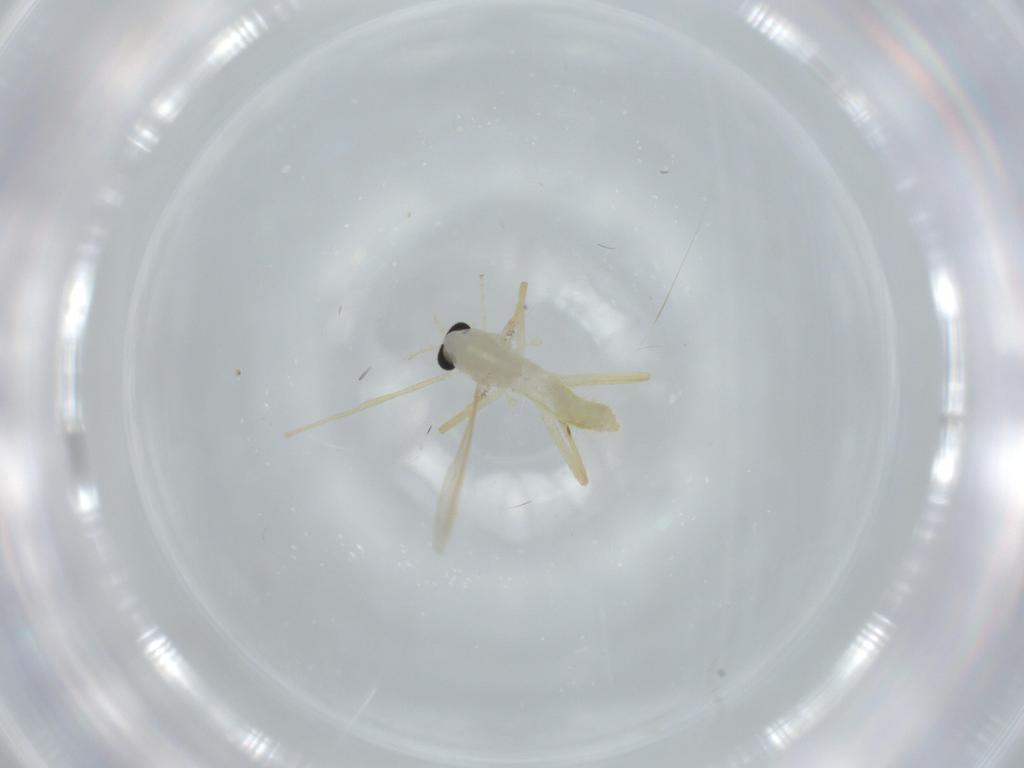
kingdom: Animalia
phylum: Arthropoda
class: Insecta
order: Diptera
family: Chironomidae
